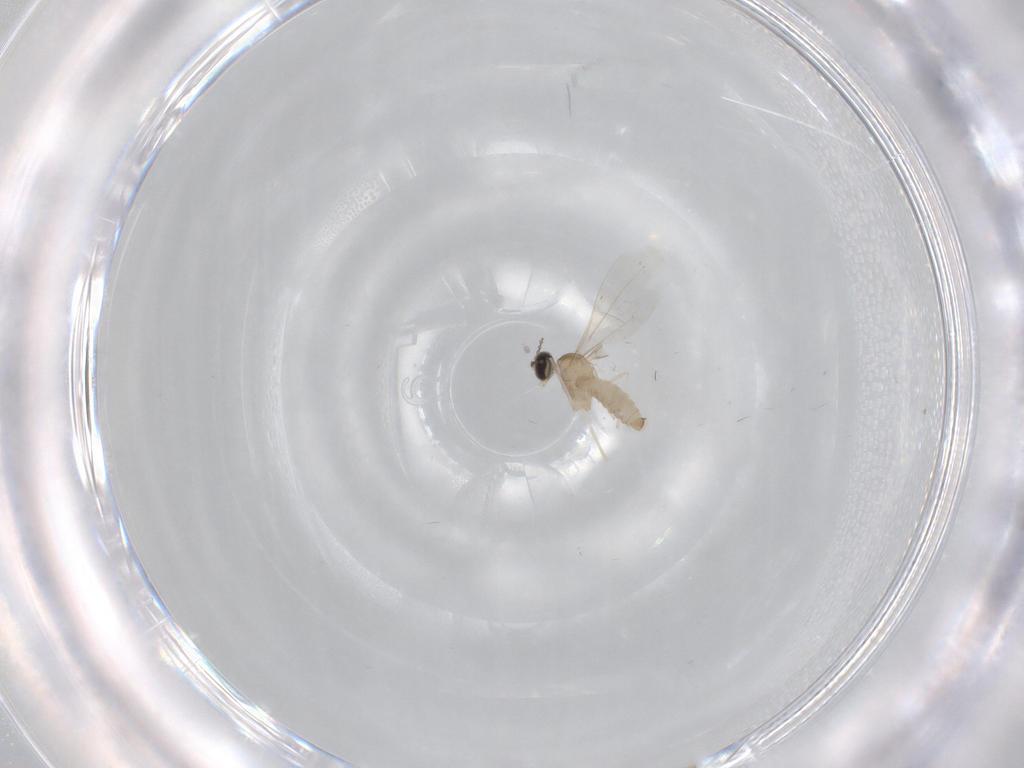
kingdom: Animalia
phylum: Arthropoda
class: Insecta
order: Diptera
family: Cecidomyiidae
